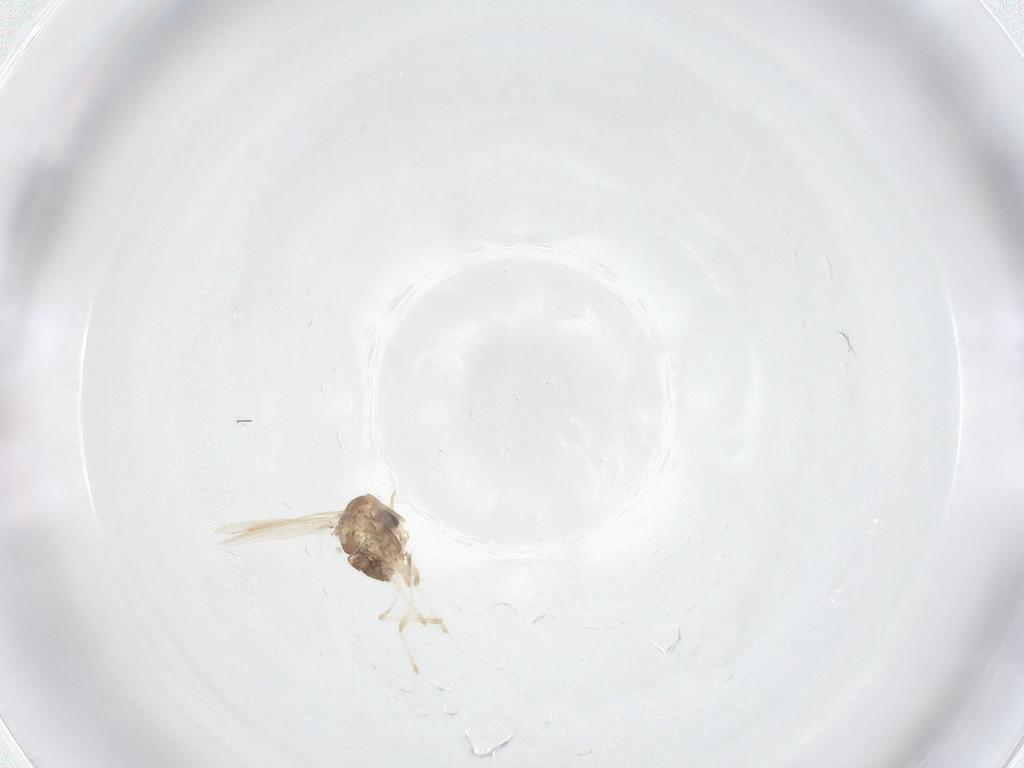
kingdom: Animalia
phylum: Arthropoda
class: Insecta
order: Diptera
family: Chironomidae
